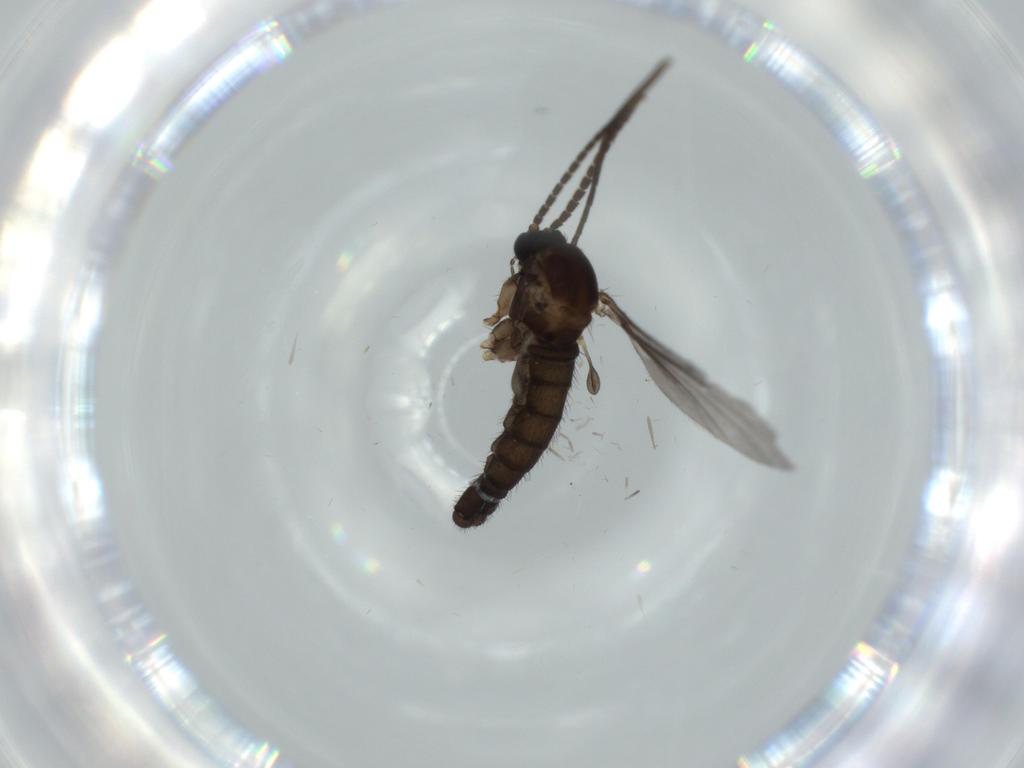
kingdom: Animalia
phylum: Arthropoda
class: Insecta
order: Diptera
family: Sciaridae
